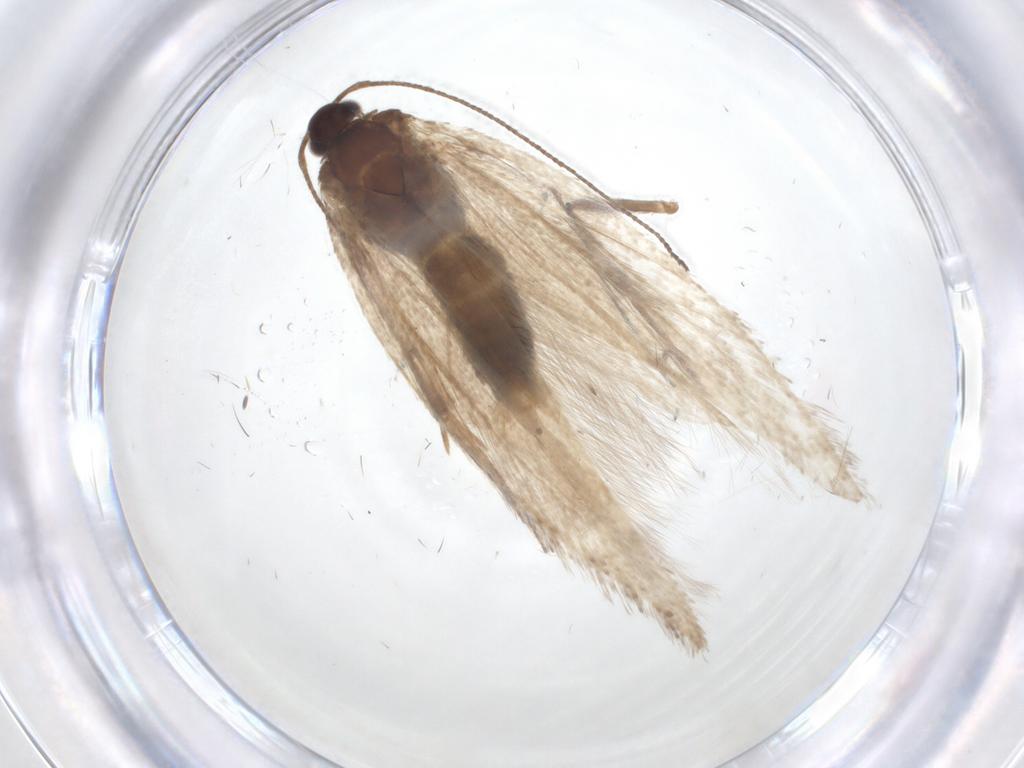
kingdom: Animalia
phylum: Arthropoda
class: Insecta
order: Lepidoptera
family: Gelechiidae
